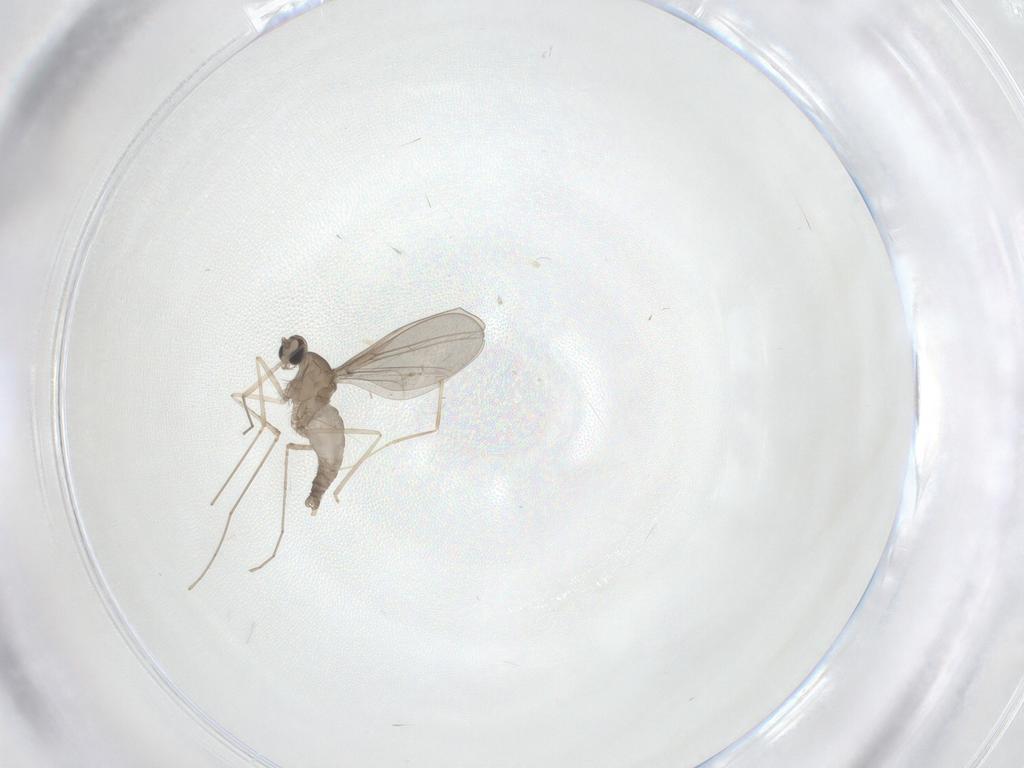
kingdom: Animalia
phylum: Arthropoda
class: Insecta
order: Diptera
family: Cecidomyiidae
